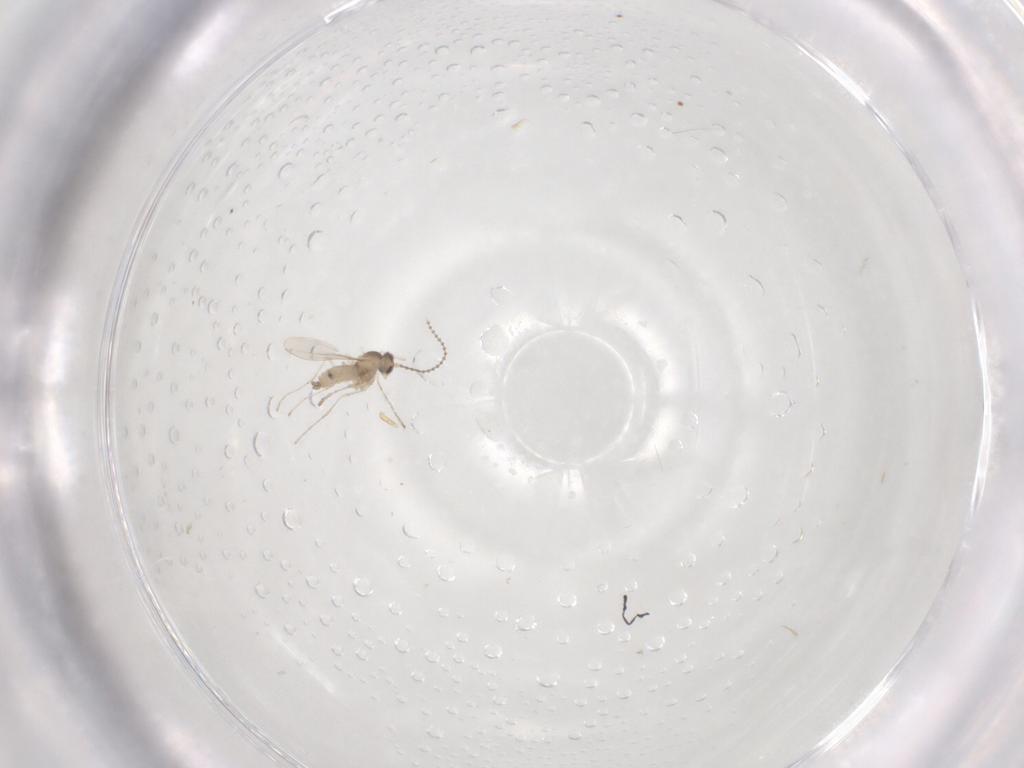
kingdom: Animalia
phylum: Arthropoda
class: Insecta
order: Diptera
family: Cecidomyiidae
